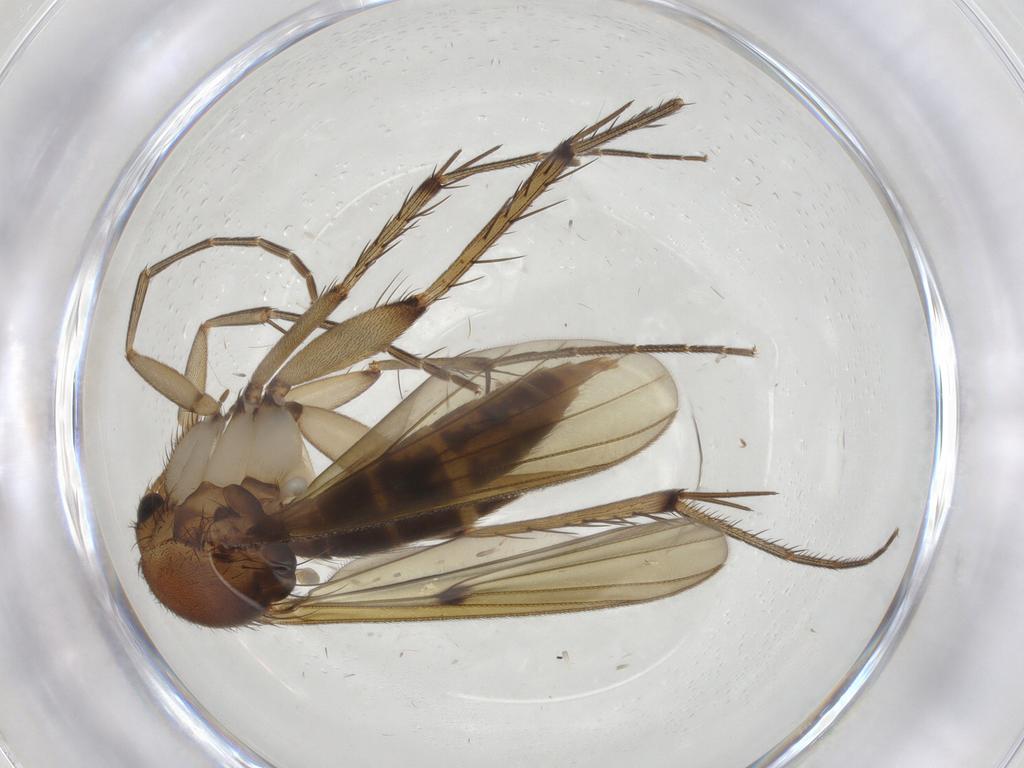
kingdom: Animalia
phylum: Arthropoda
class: Insecta
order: Diptera
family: Mycetophilidae
